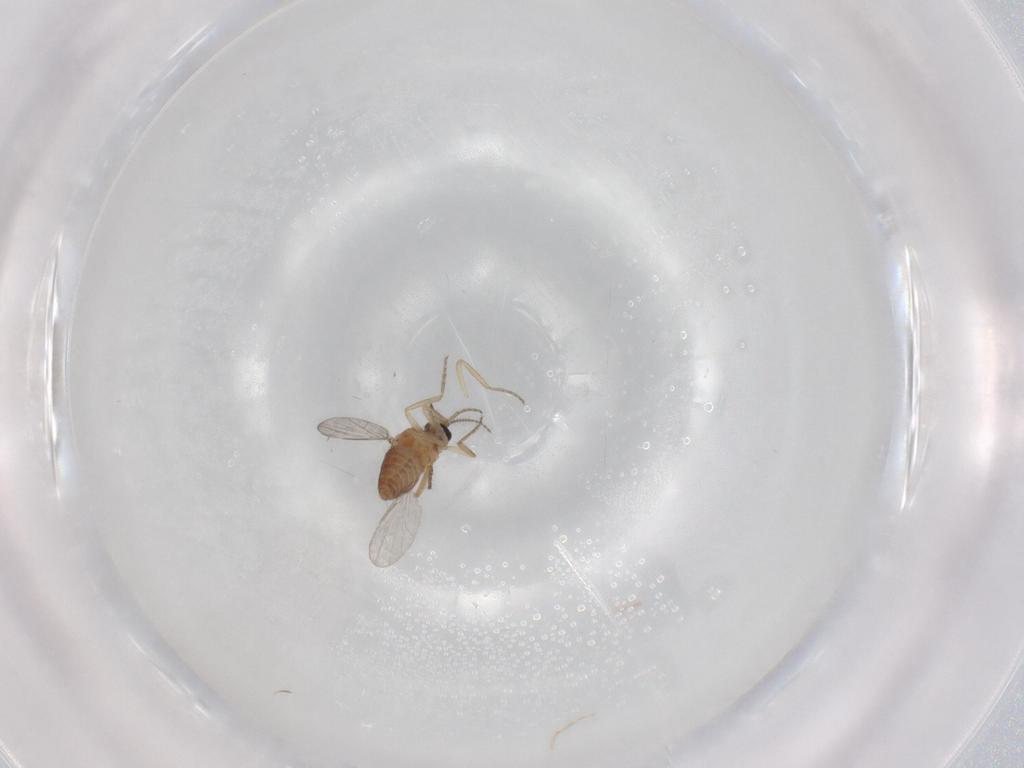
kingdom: Animalia
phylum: Arthropoda
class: Insecta
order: Diptera
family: Ceratopogonidae
